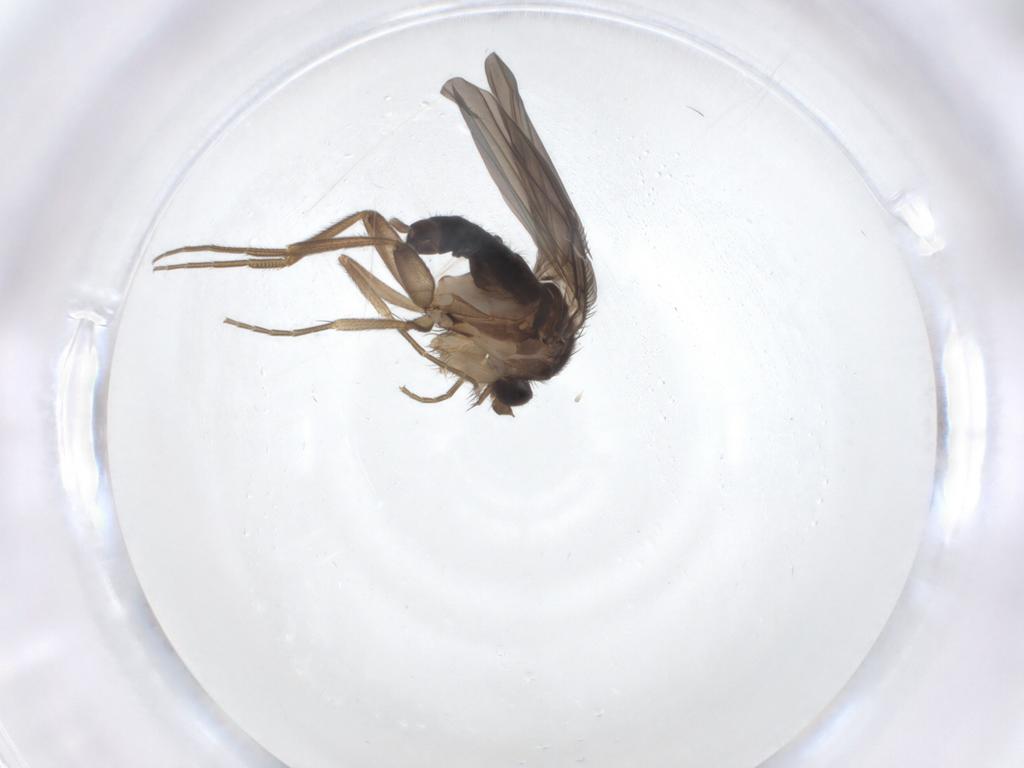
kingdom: Animalia
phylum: Arthropoda
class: Insecta
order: Diptera
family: Phoridae
